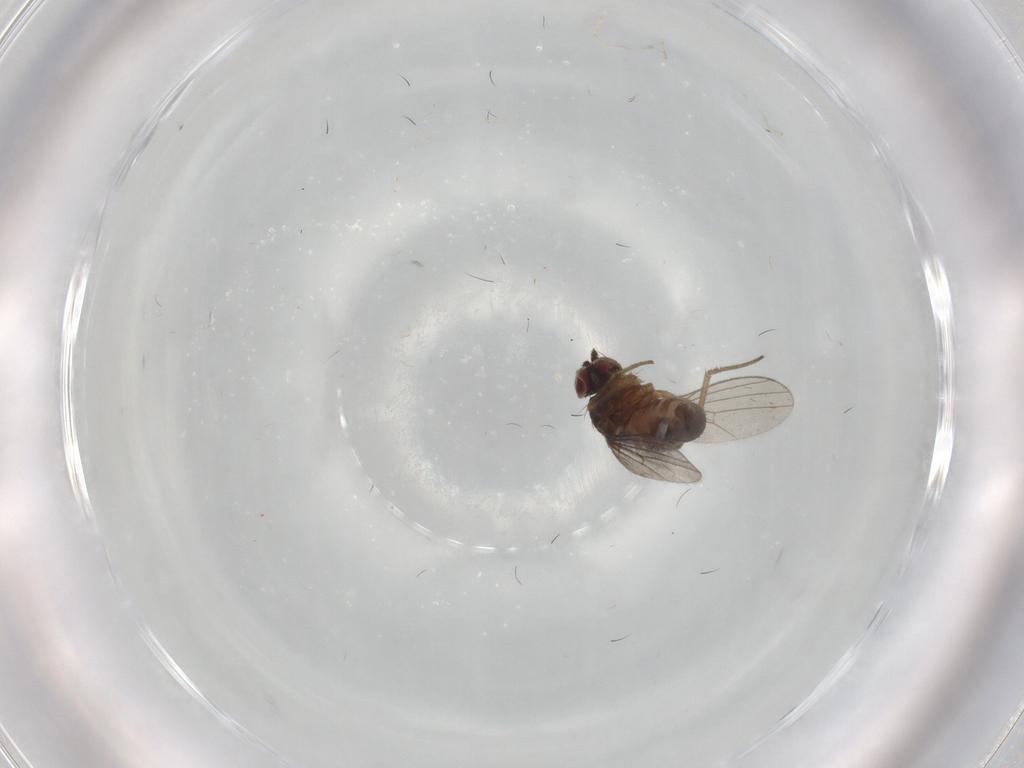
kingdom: Animalia
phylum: Arthropoda
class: Insecta
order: Diptera
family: Dolichopodidae
